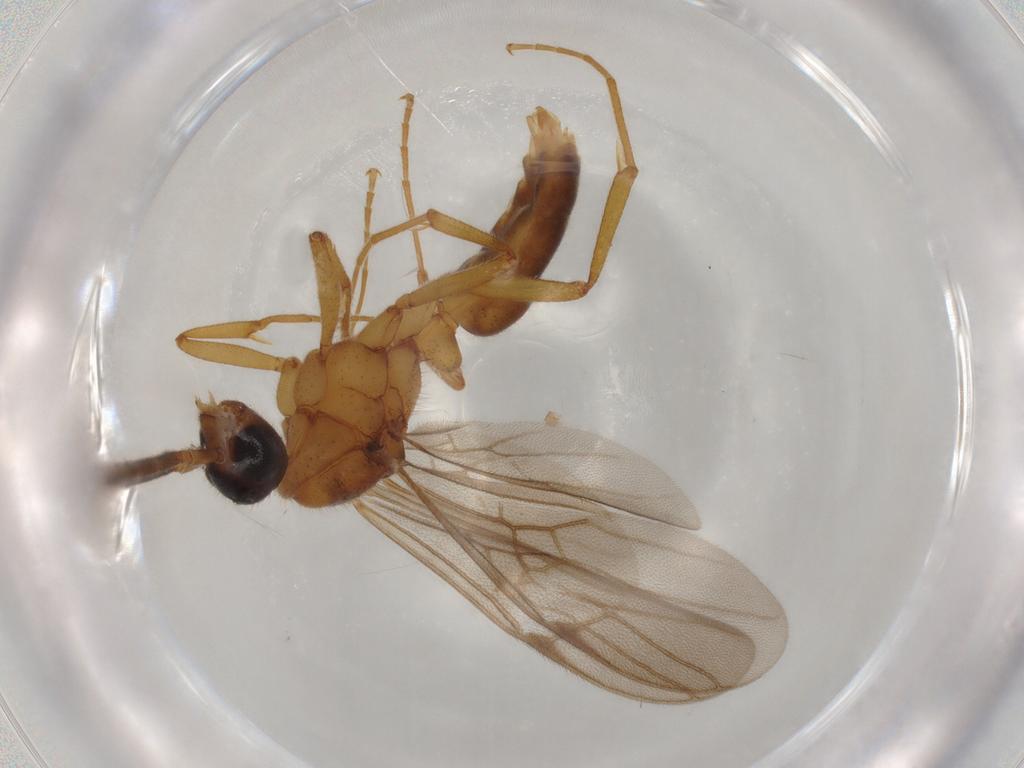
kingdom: Animalia
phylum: Arthropoda
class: Insecta
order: Hymenoptera
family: Formicidae
